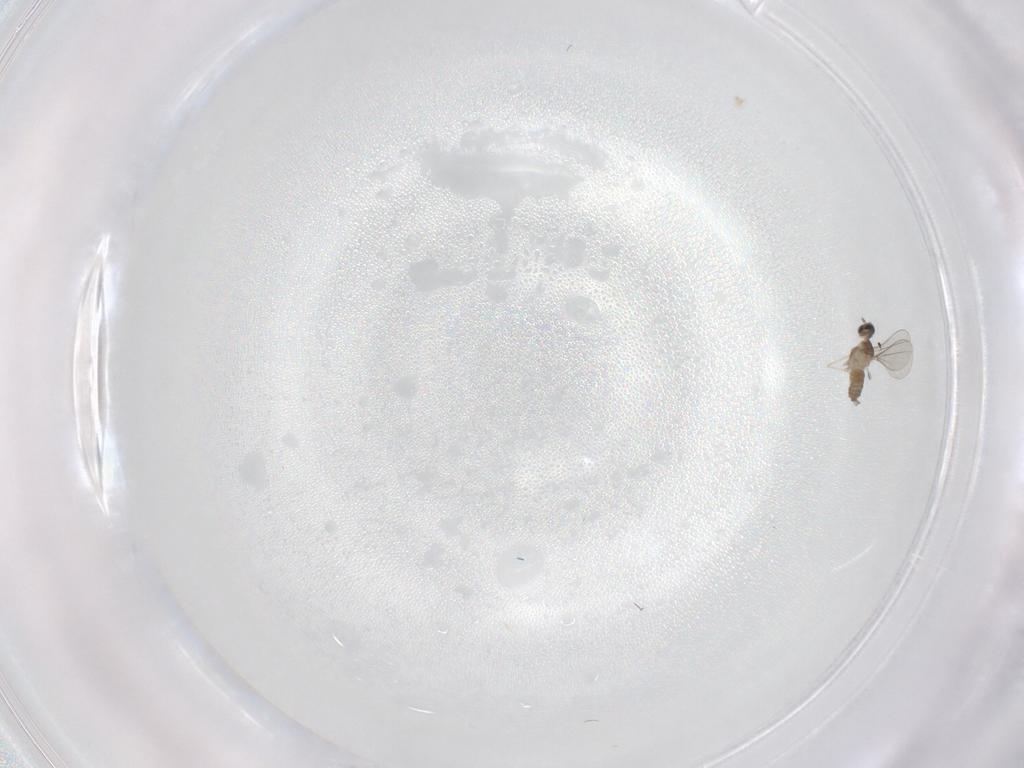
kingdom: Animalia
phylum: Arthropoda
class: Insecta
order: Diptera
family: Cecidomyiidae
